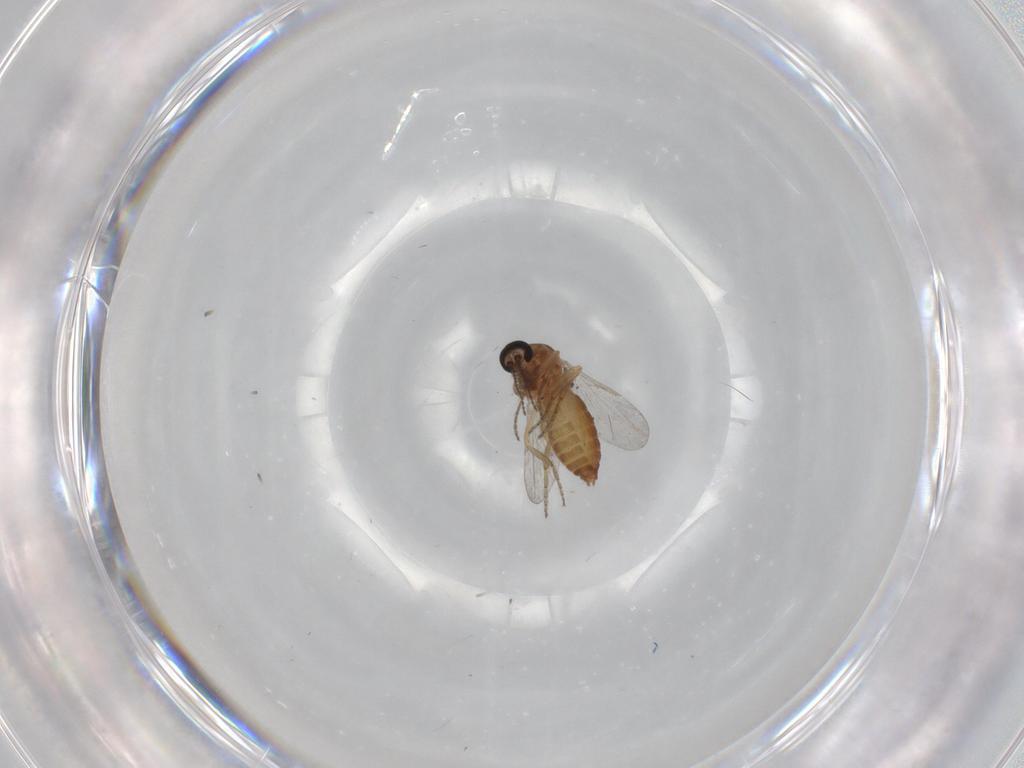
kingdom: Animalia
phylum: Arthropoda
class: Insecta
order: Diptera
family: Ceratopogonidae
